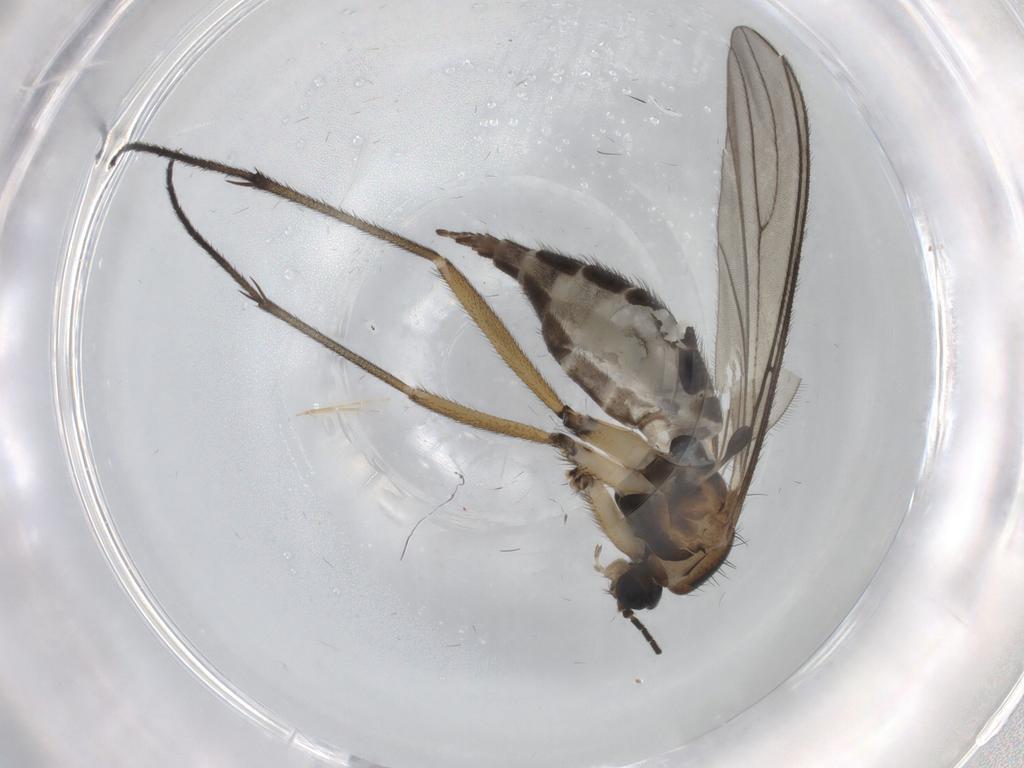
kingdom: Animalia
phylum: Arthropoda
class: Insecta
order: Diptera
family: Sciaridae
